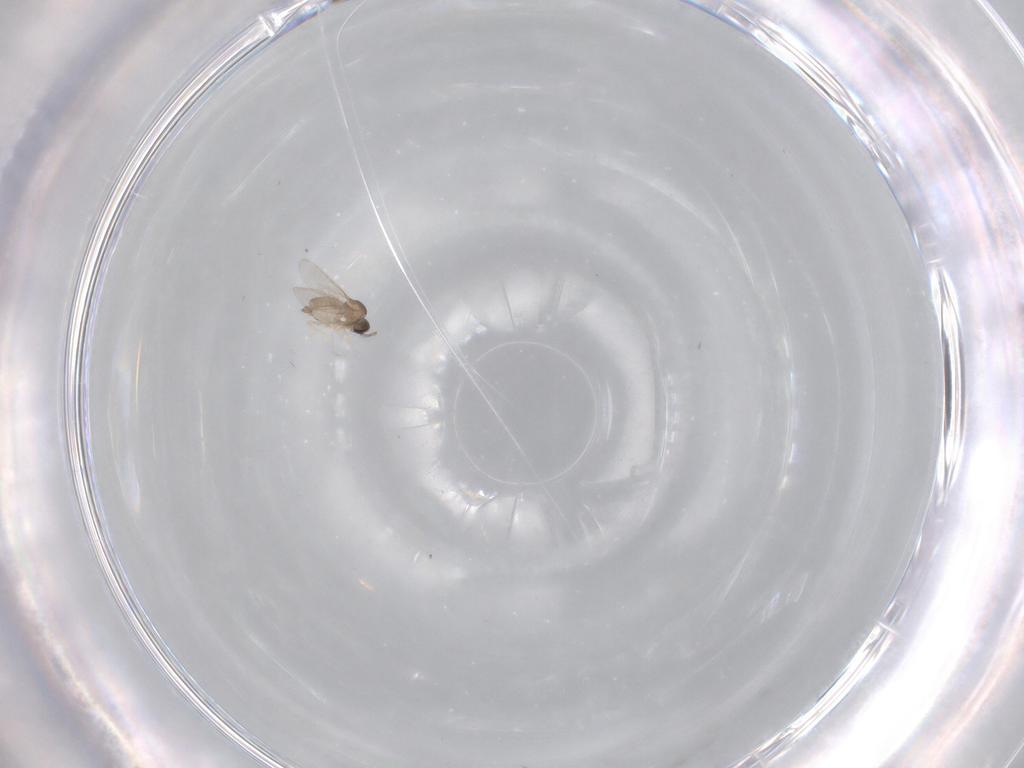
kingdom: Animalia
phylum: Arthropoda
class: Insecta
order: Diptera
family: Cecidomyiidae
